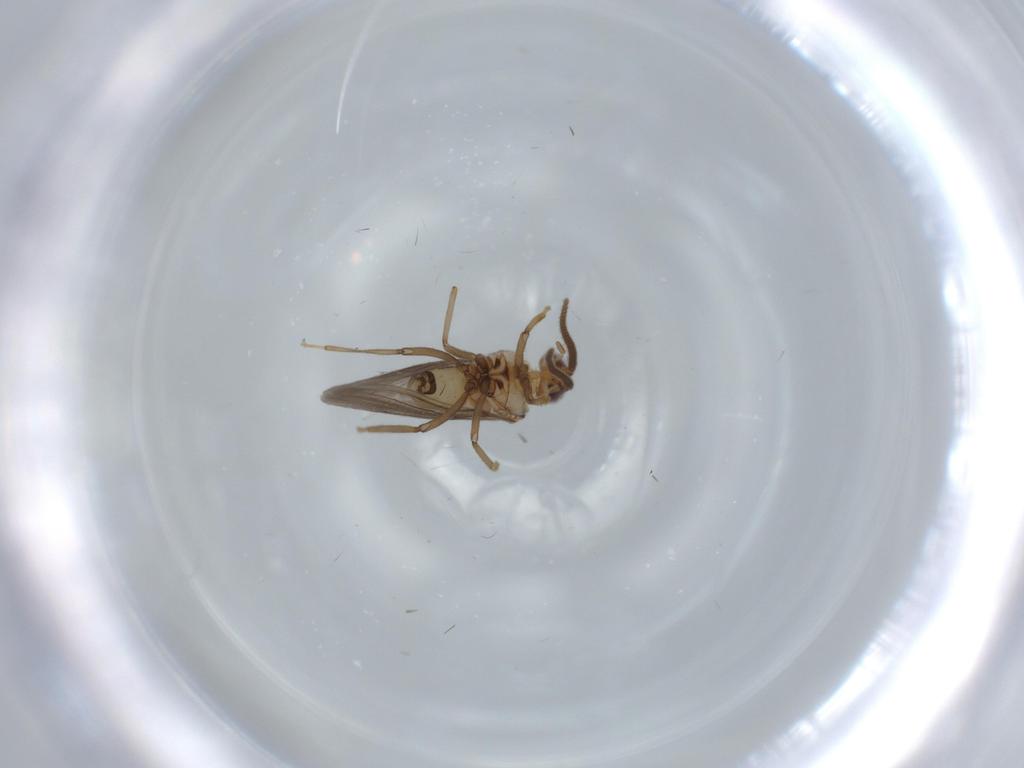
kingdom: Animalia
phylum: Arthropoda
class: Insecta
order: Neuroptera
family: Coniopterygidae
